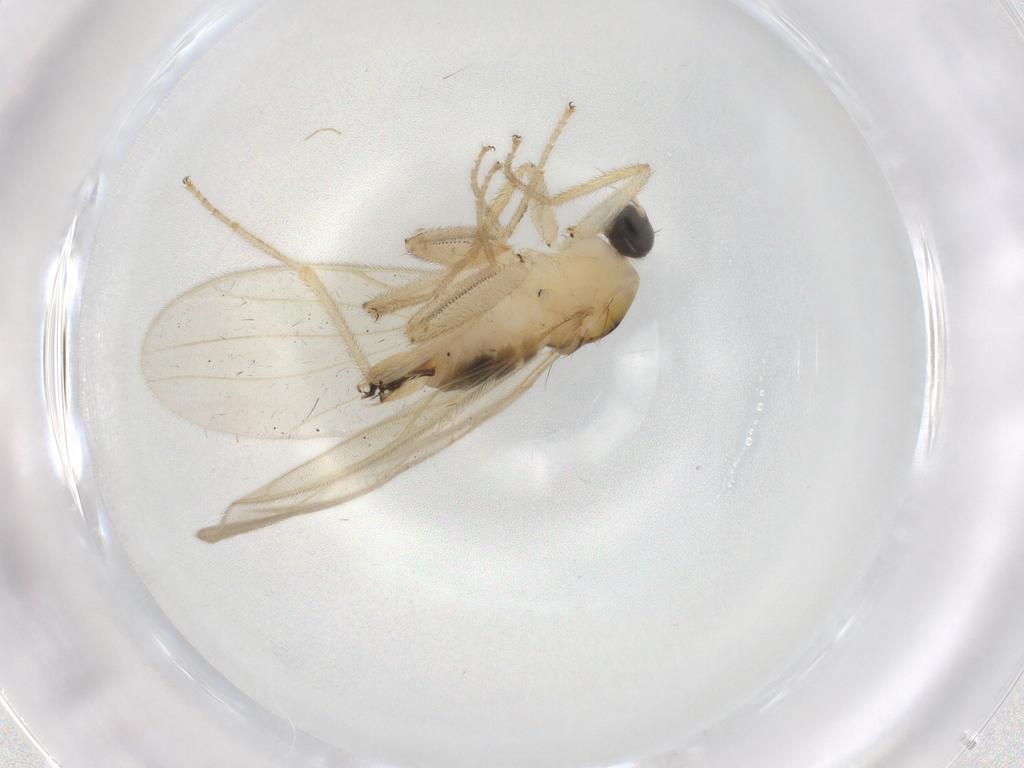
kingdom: Animalia
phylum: Arthropoda
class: Insecta
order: Diptera
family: Hybotidae
